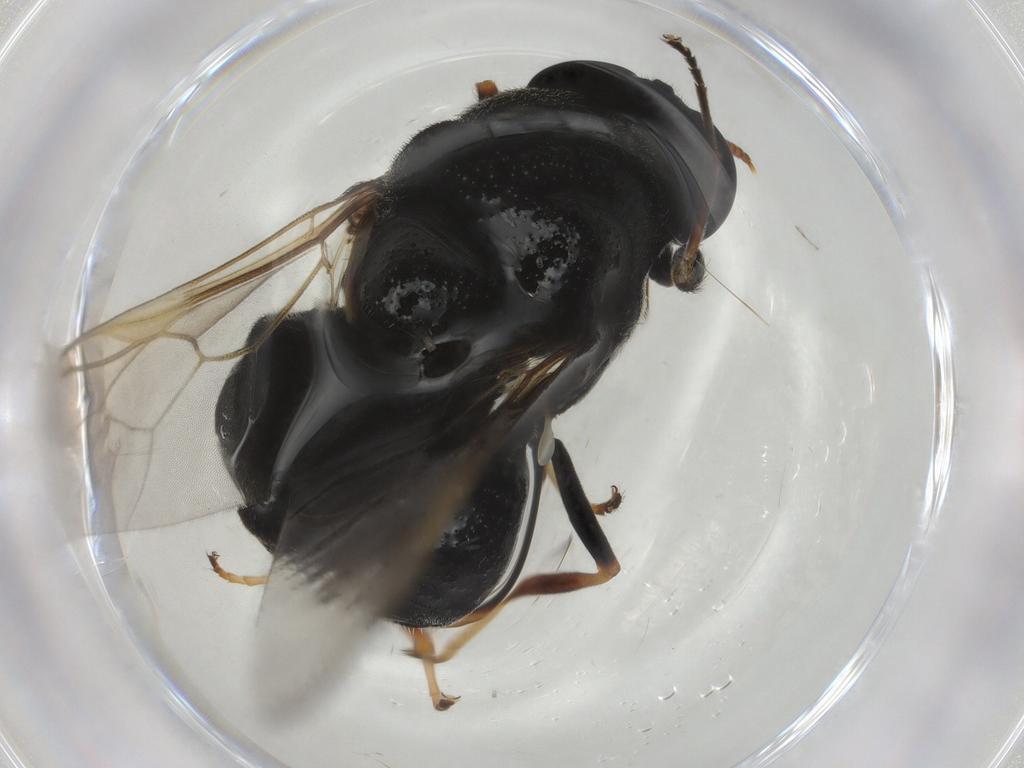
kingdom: Animalia
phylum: Arthropoda
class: Insecta
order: Diptera
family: Stratiomyidae
